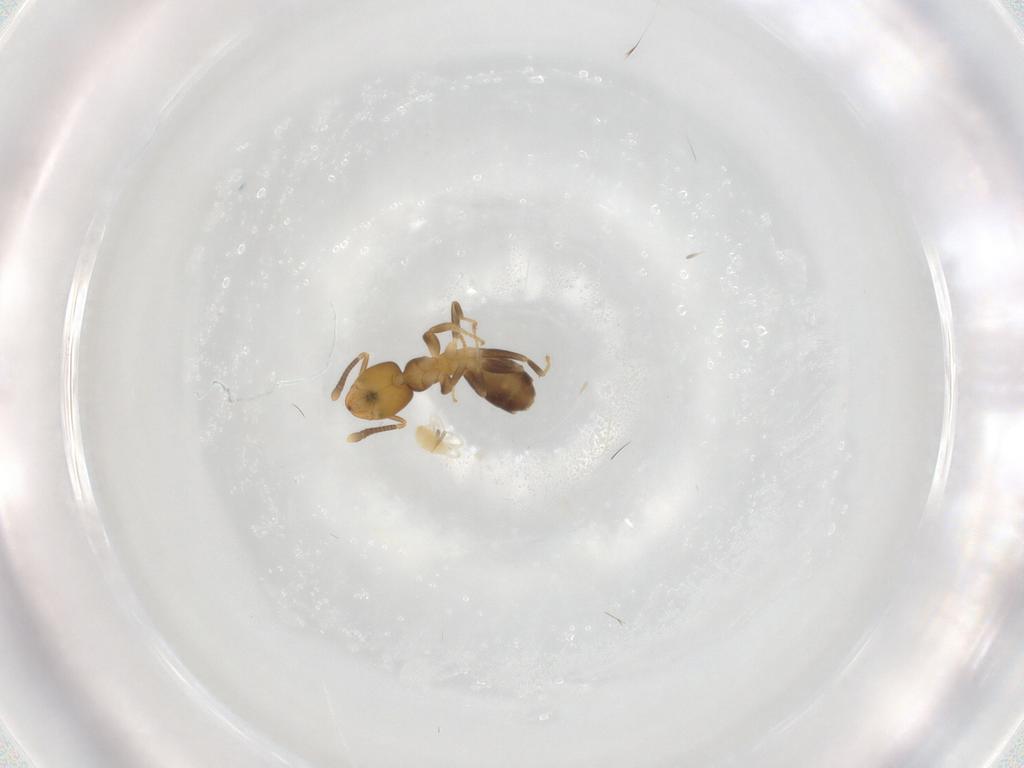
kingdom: Animalia
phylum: Arthropoda
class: Insecta
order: Hymenoptera
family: Formicidae
